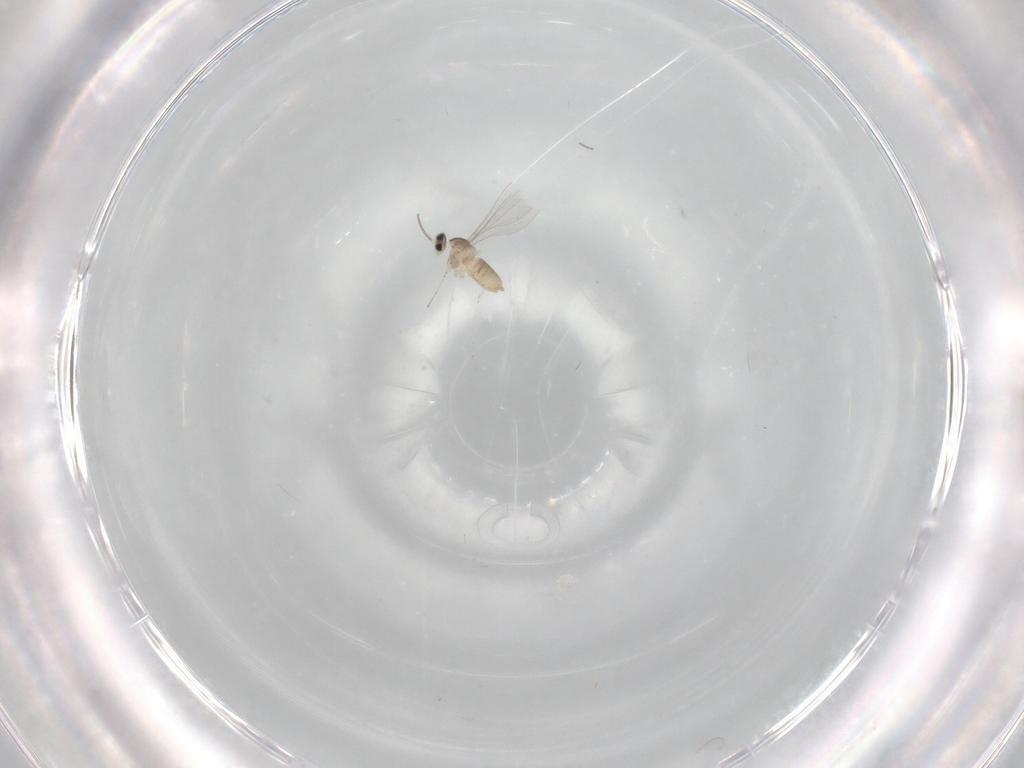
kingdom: Animalia
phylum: Arthropoda
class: Insecta
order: Diptera
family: Cecidomyiidae
